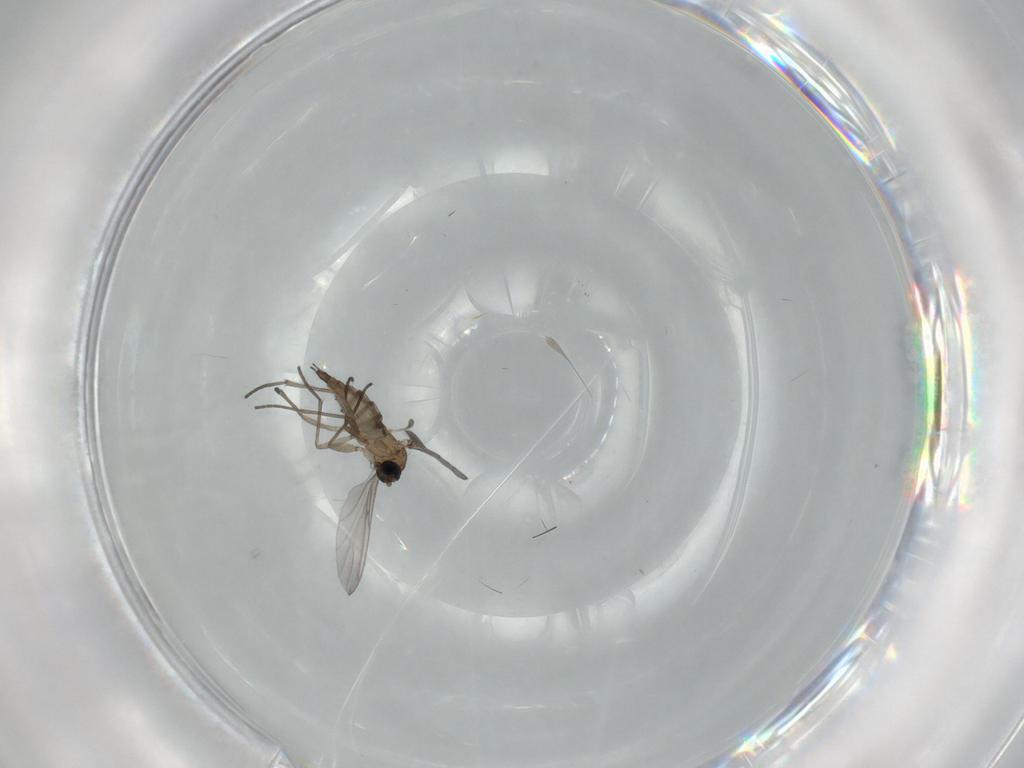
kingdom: Animalia
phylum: Arthropoda
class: Insecta
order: Diptera
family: Sciaridae
